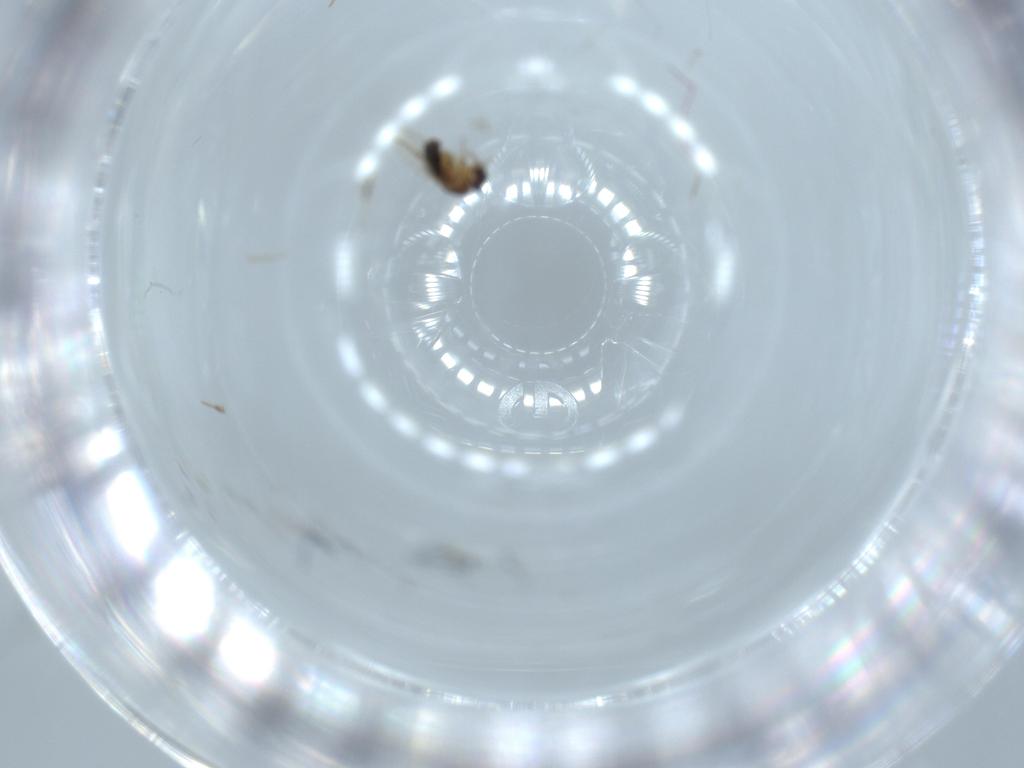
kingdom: Animalia
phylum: Arthropoda
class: Insecta
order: Diptera
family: Phoridae
